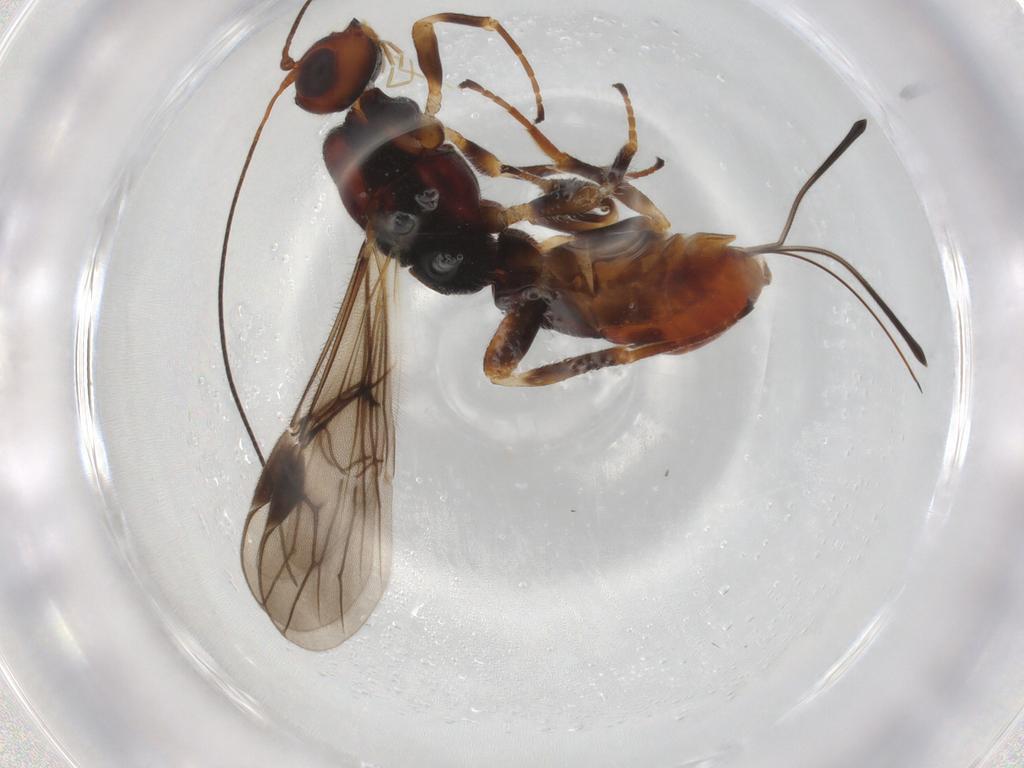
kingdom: Animalia
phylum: Arthropoda
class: Insecta
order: Hymenoptera
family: Braconidae
